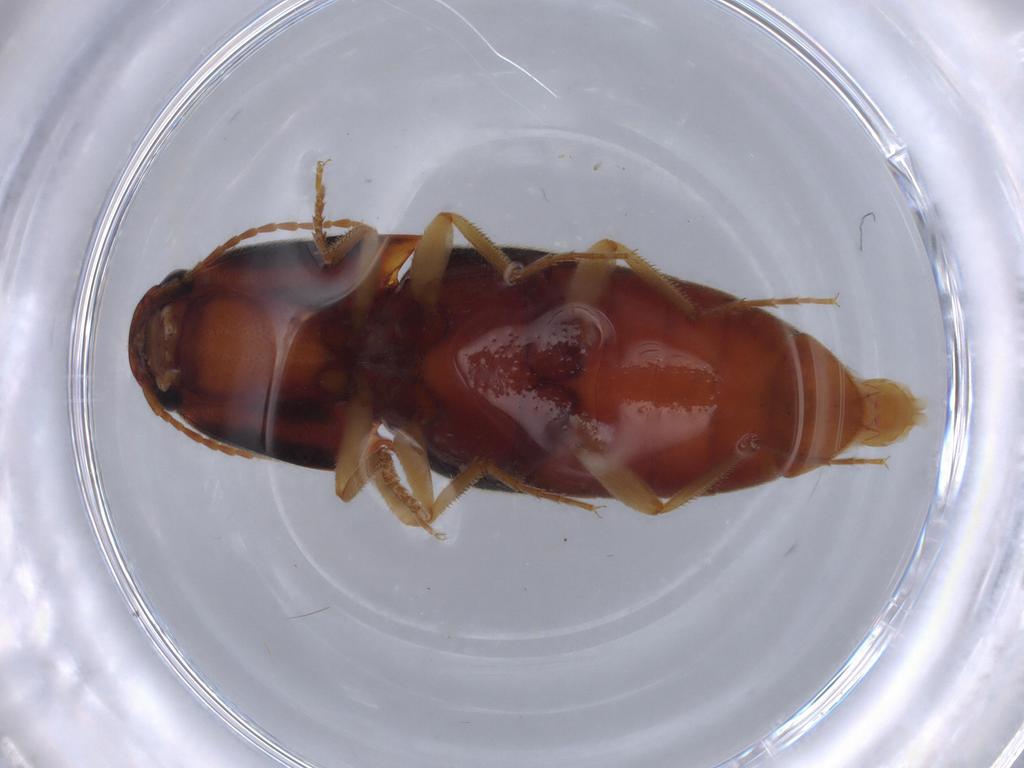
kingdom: Animalia
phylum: Arthropoda
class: Insecta
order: Coleoptera
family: Elateridae
